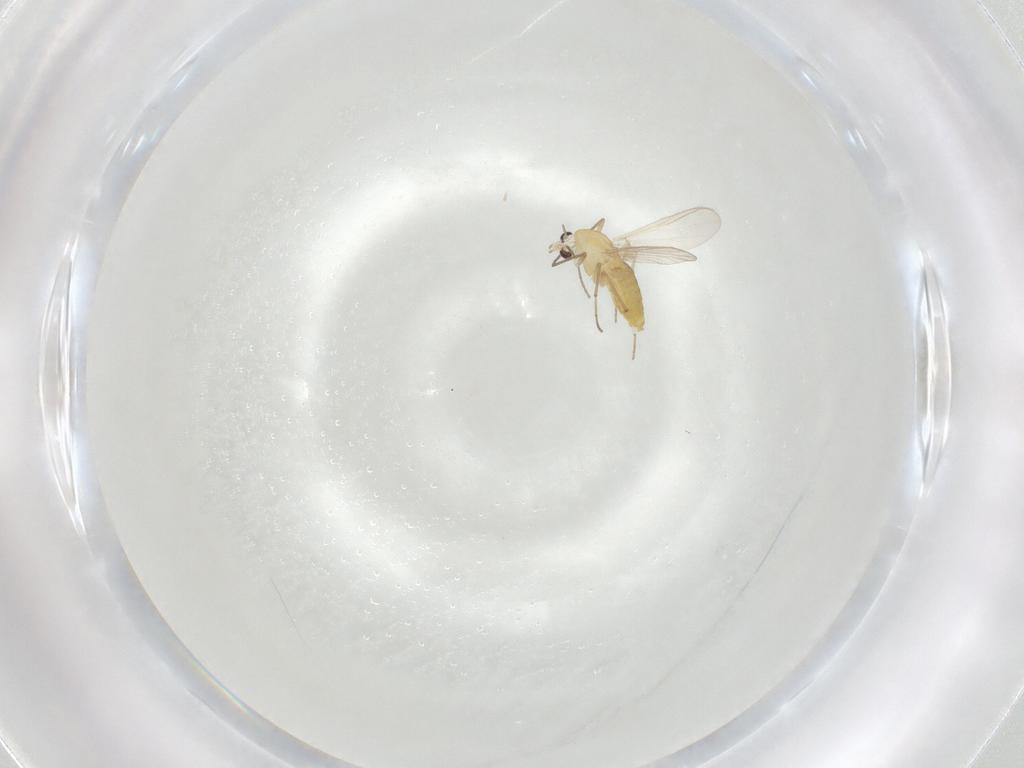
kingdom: Animalia
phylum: Arthropoda
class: Insecta
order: Diptera
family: Chironomidae
